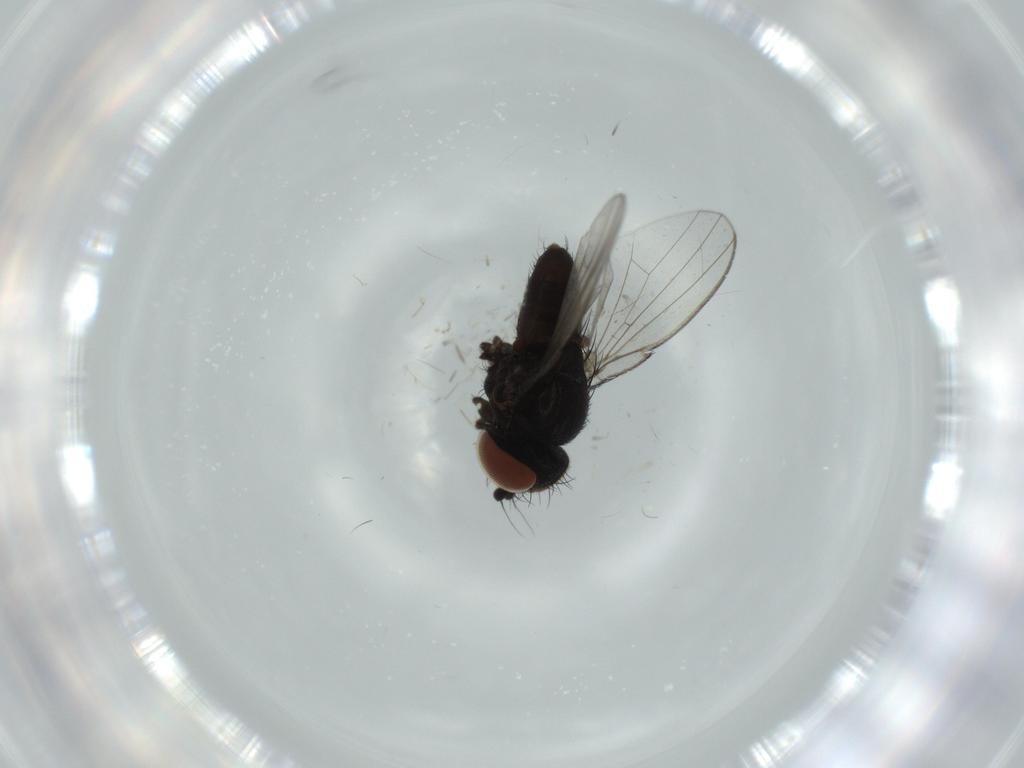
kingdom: Animalia
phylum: Arthropoda
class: Insecta
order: Diptera
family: Milichiidae
